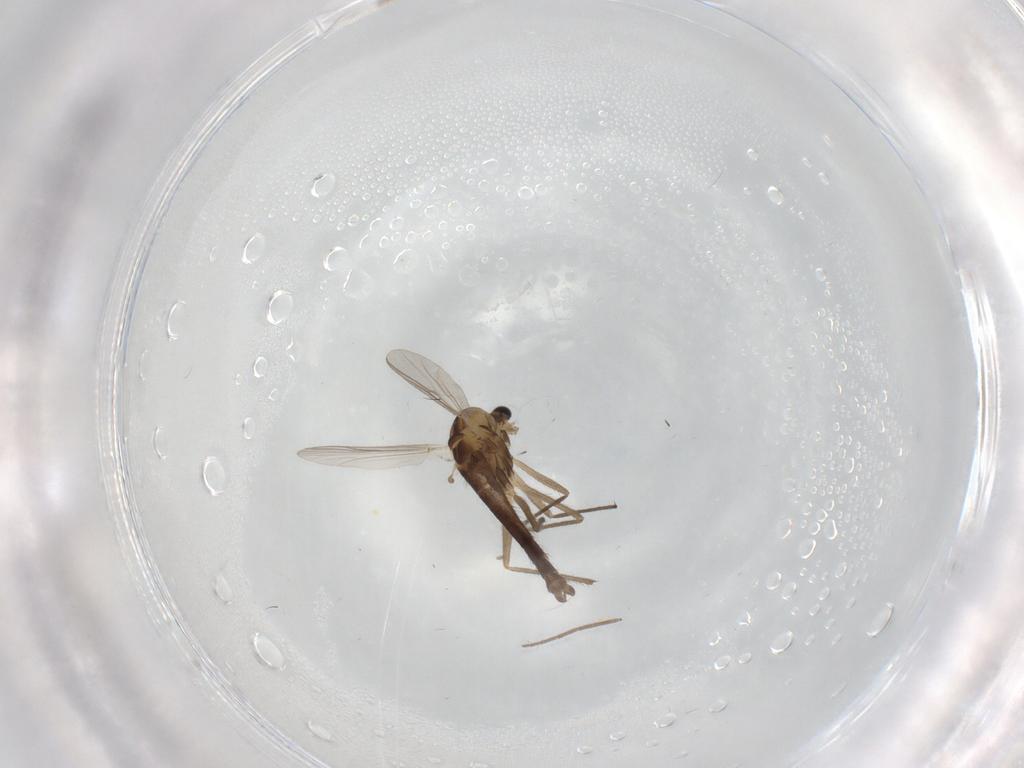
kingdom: Animalia
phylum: Arthropoda
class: Insecta
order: Diptera
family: Chironomidae
